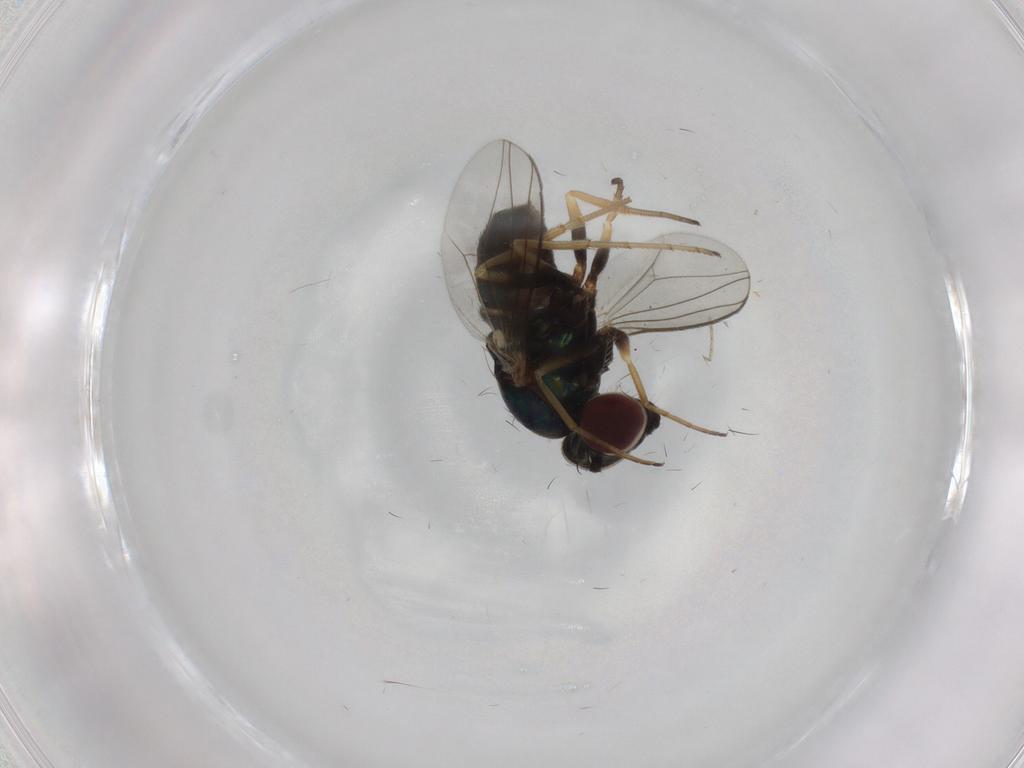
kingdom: Animalia
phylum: Arthropoda
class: Insecta
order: Diptera
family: Dolichopodidae
